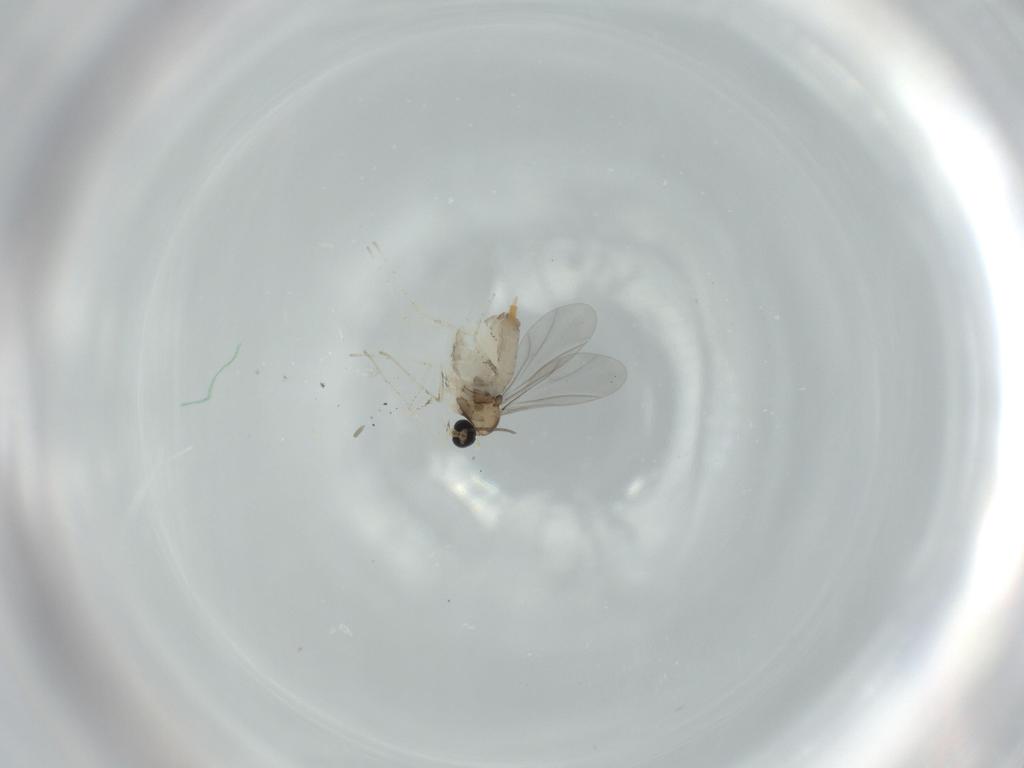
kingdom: Animalia
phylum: Arthropoda
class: Insecta
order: Diptera
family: Cecidomyiidae
